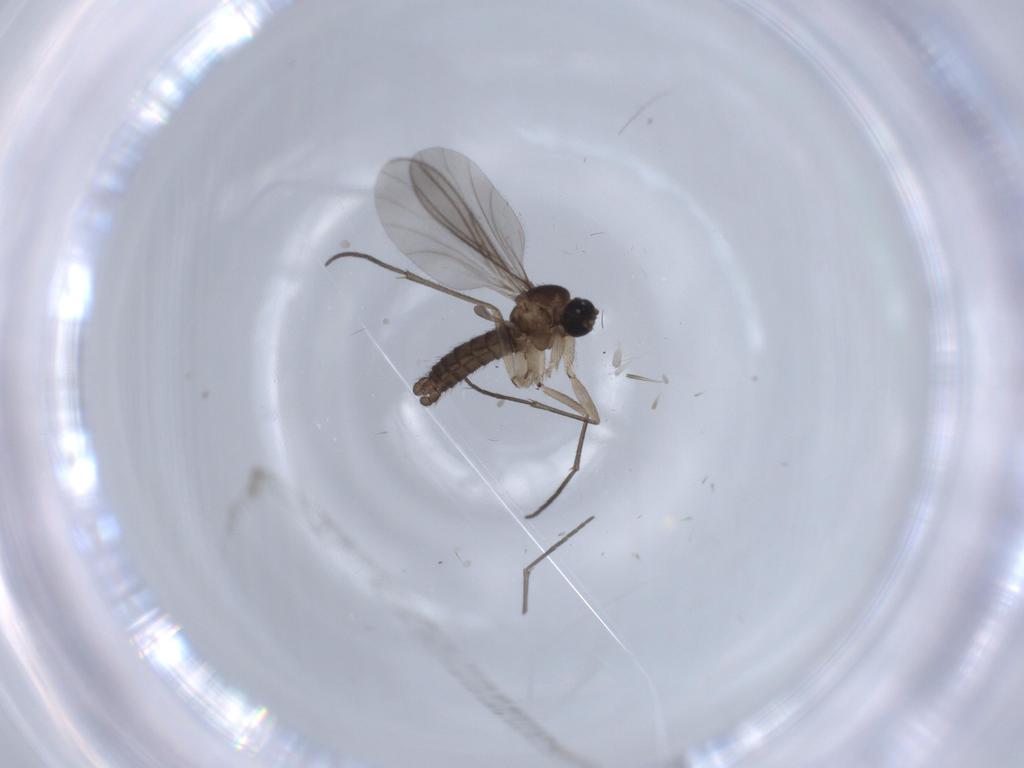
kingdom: Animalia
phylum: Arthropoda
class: Insecta
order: Diptera
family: Sciaridae
